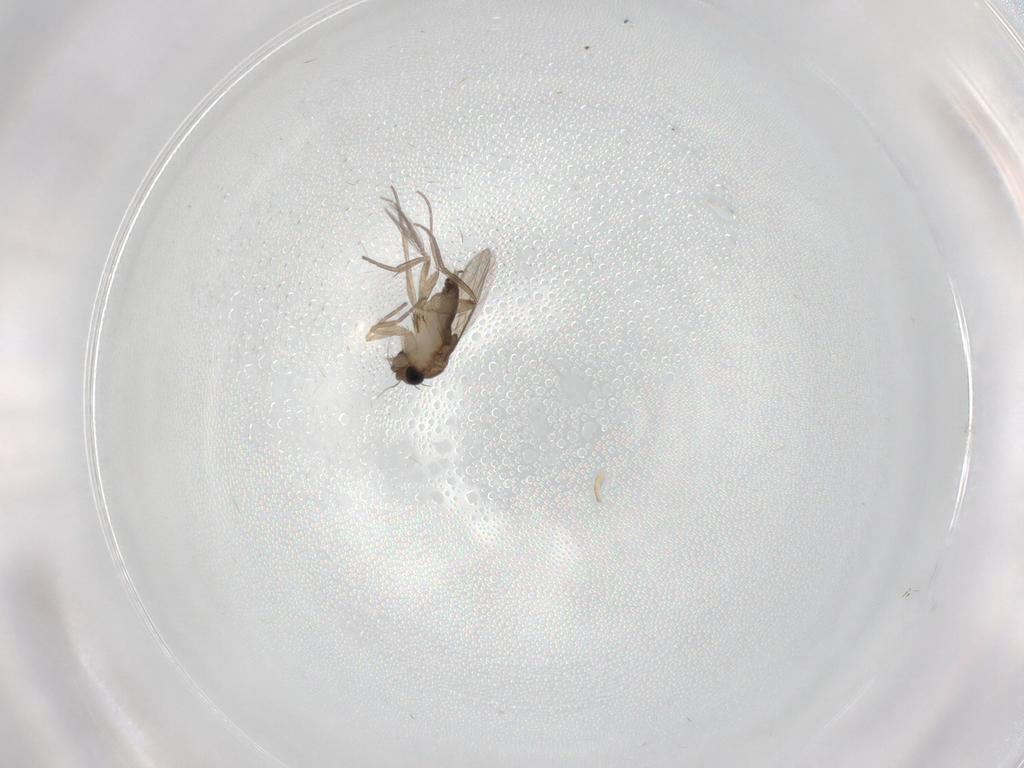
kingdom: Animalia
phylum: Arthropoda
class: Insecta
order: Diptera
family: Phoridae
